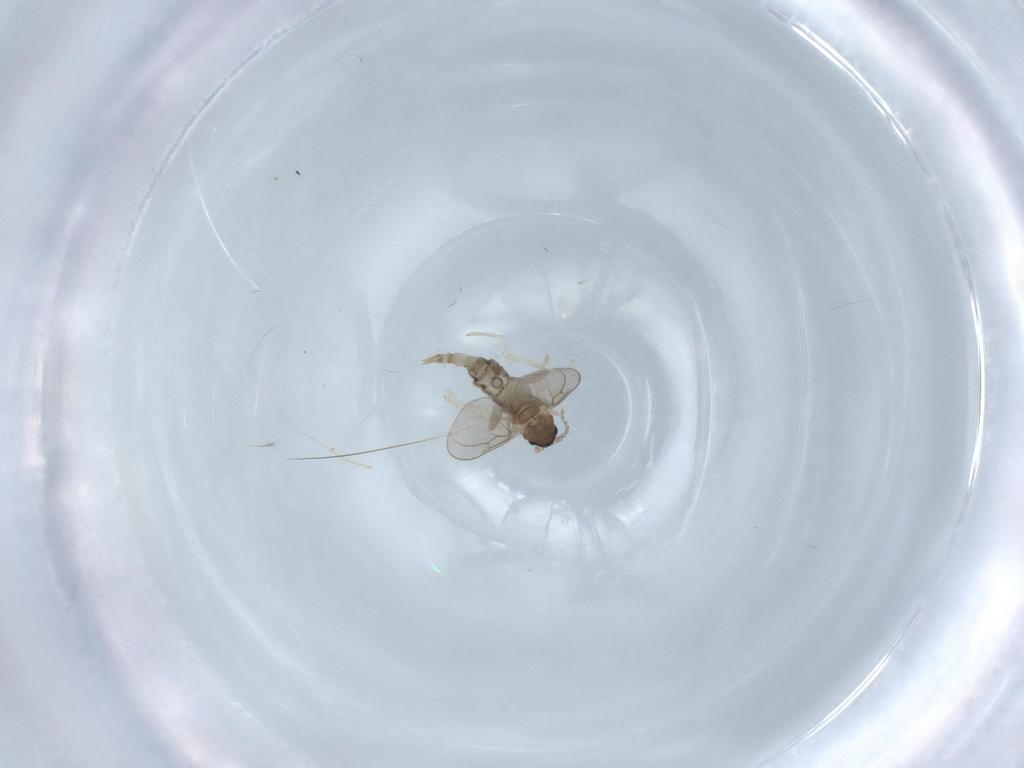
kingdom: Animalia
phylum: Arthropoda
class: Insecta
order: Diptera
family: Cecidomyiidae
